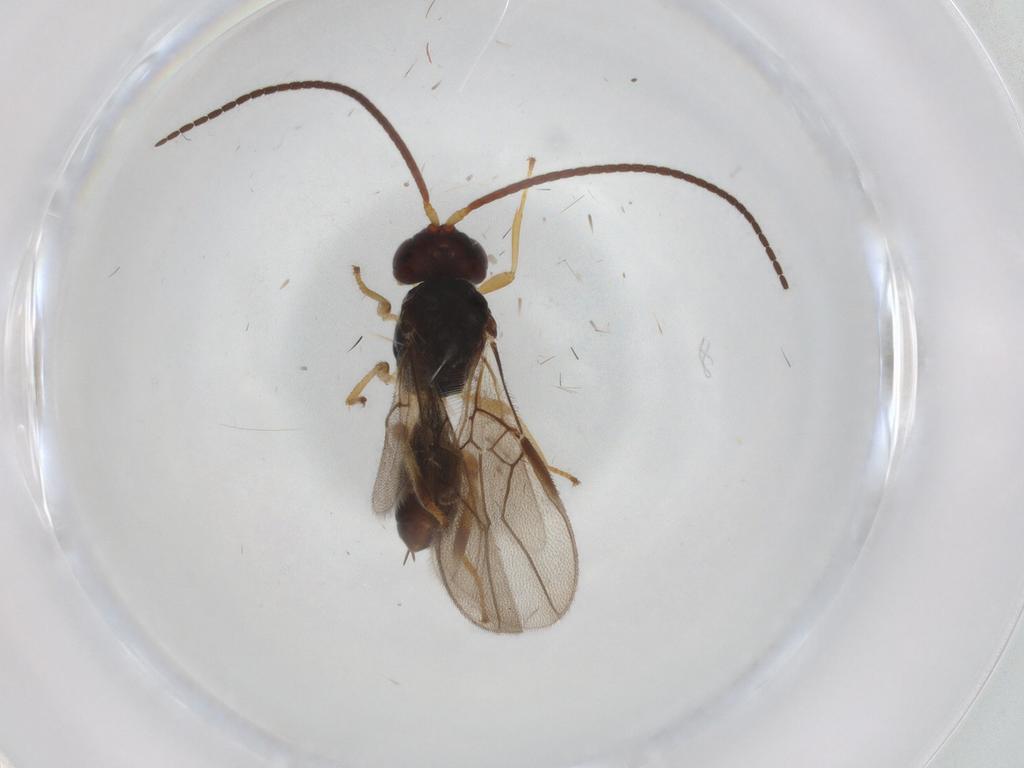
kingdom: Animalia
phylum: Arthropoda
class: Insecta
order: Hymenoptera
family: Braconidae
